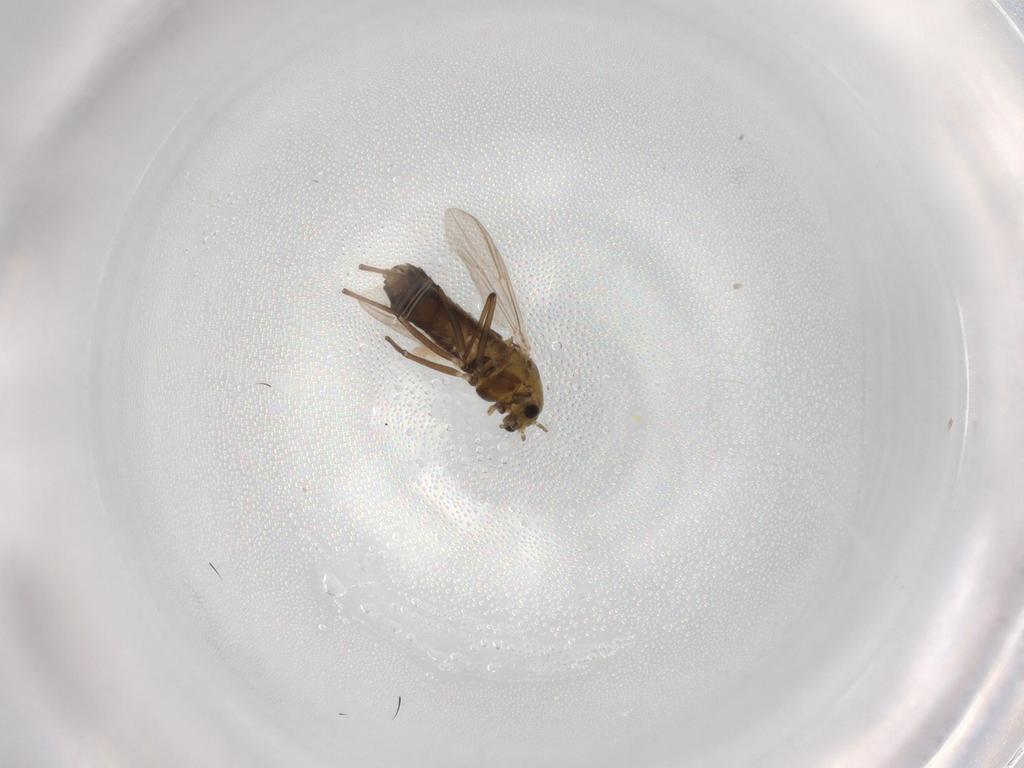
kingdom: Animalia
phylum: Arthropoda
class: Insecta
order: Diptera
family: Chironomidae
